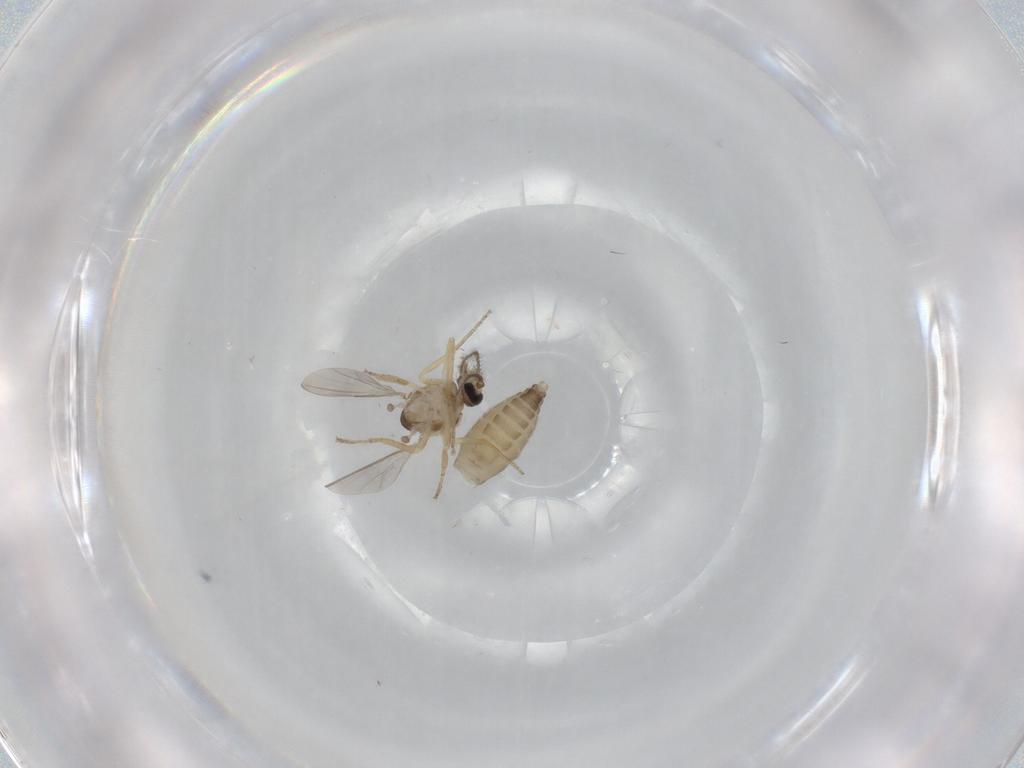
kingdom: Animalia
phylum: Arthropoda
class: Insecta
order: Diptera
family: Ceratopogonidae
